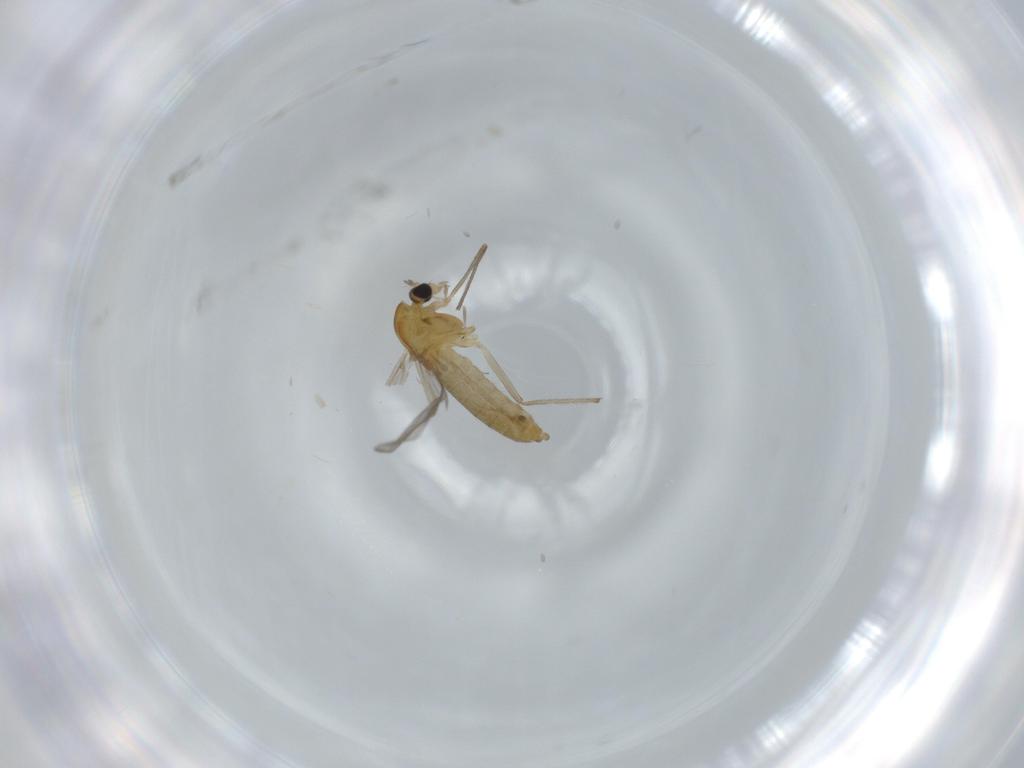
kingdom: Animalia
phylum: Arthropoda
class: Insecta
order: Diptera
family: Chironomidae
